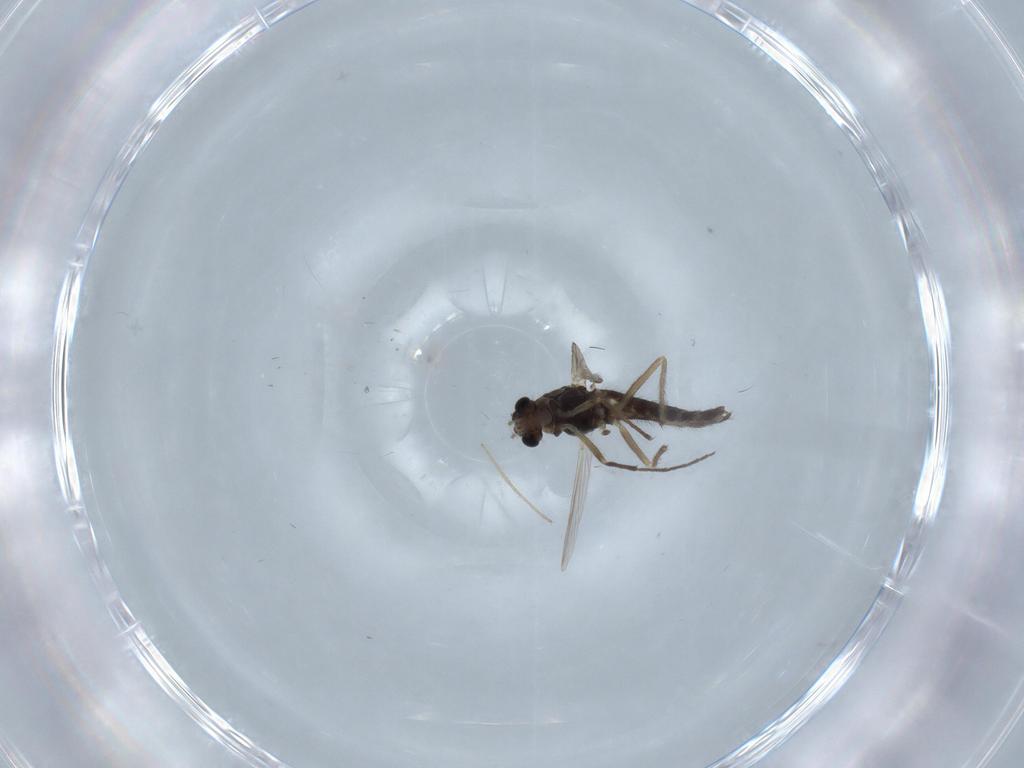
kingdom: Animalia
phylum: Arthropoda
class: Insecta
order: Diptera
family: Chironomidae
